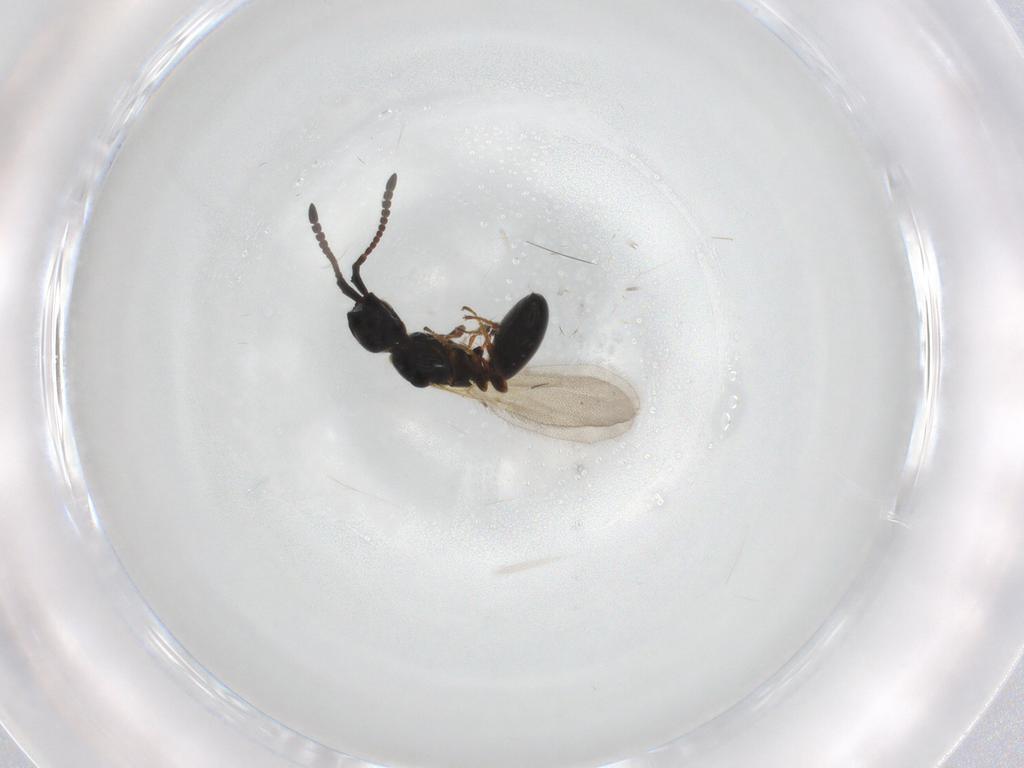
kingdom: Animalia
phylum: Arthropoda
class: Insecta
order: Hymenoptera
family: Diapriidae
